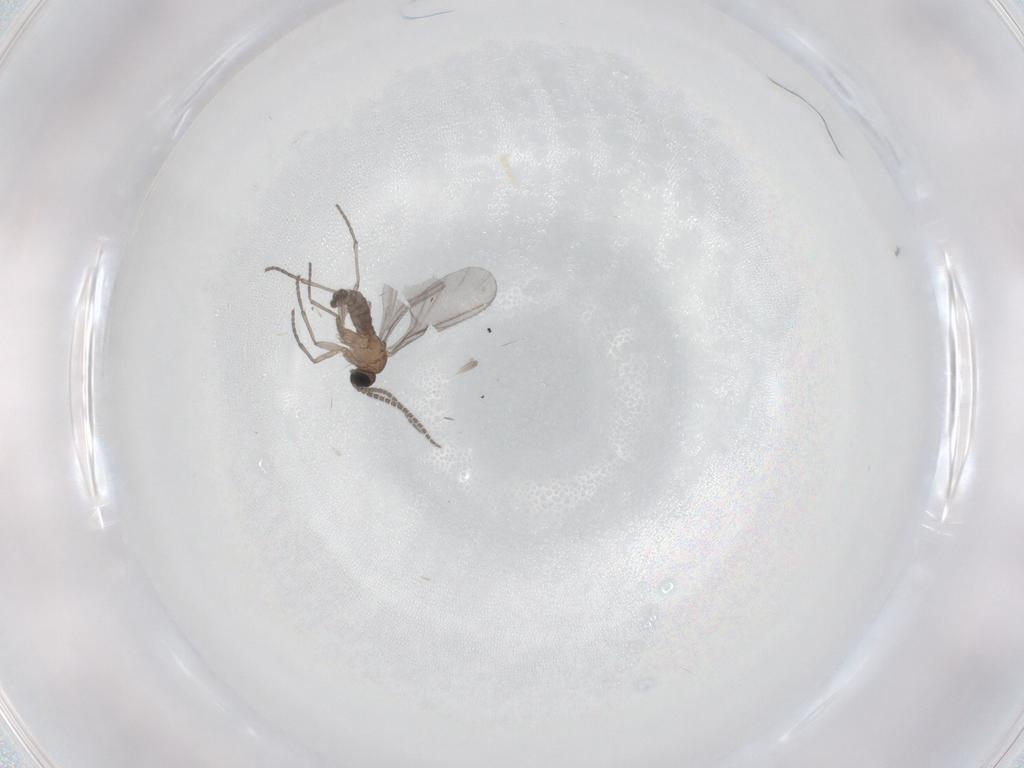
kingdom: Animalia
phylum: Arthropoda
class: Insecta
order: Diptera
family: Sciaridae
